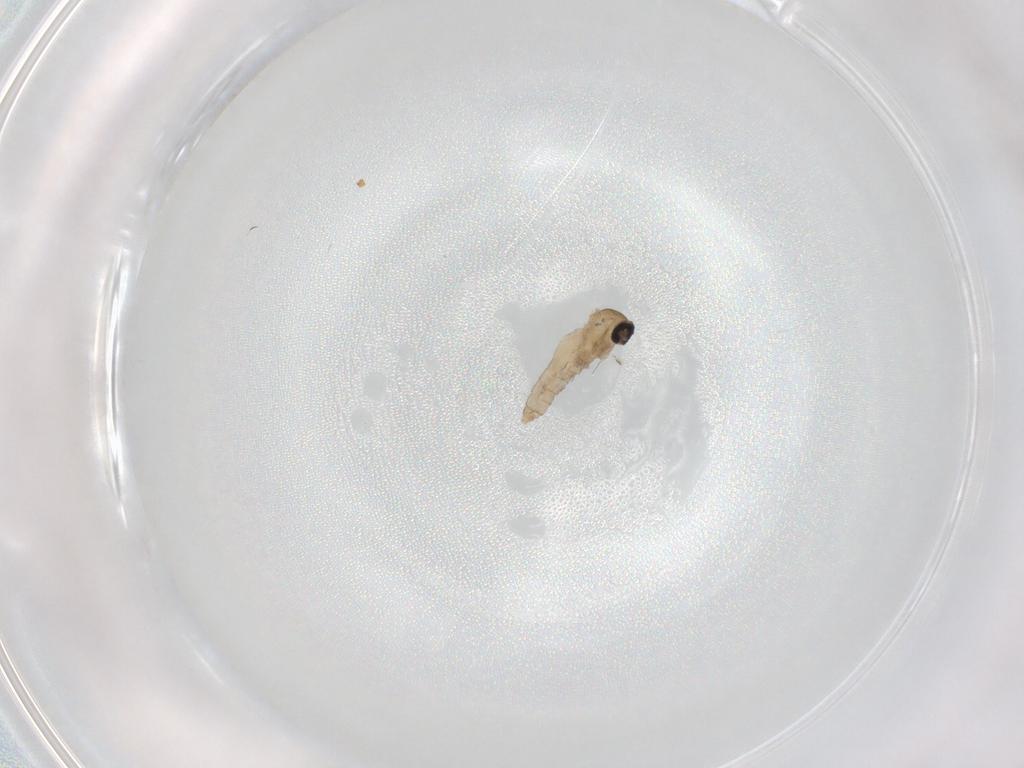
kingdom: Animalia
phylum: Arthropoda
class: Insecta
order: Diptera
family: Cecidomyiidae
